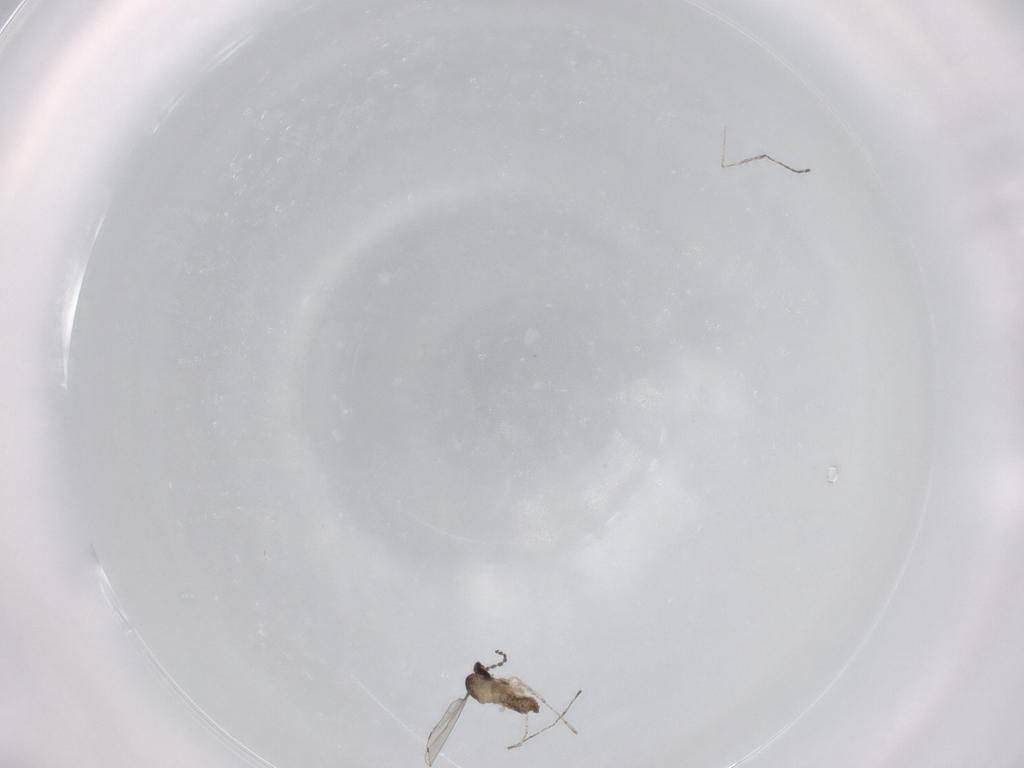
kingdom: Animalia
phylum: Arthropoda
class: Insecta
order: Diptera
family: Cecidomyiidae
